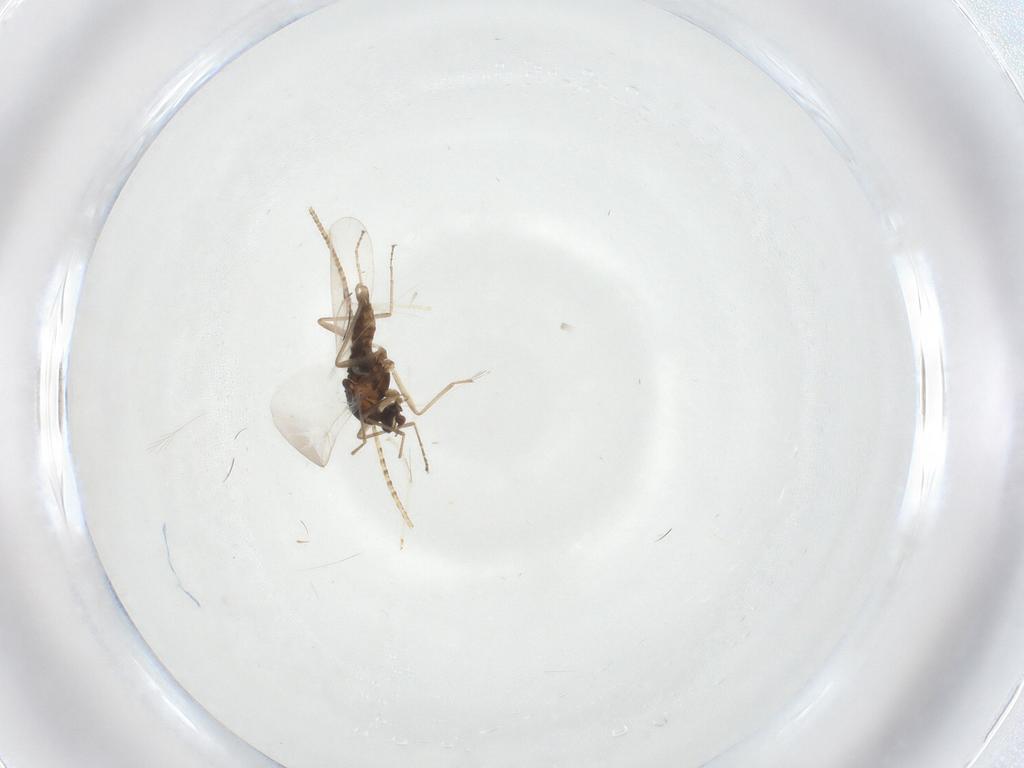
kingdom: Animalia
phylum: Arthropoda
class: Insecta
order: Diptera
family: Cecidomyiidae
